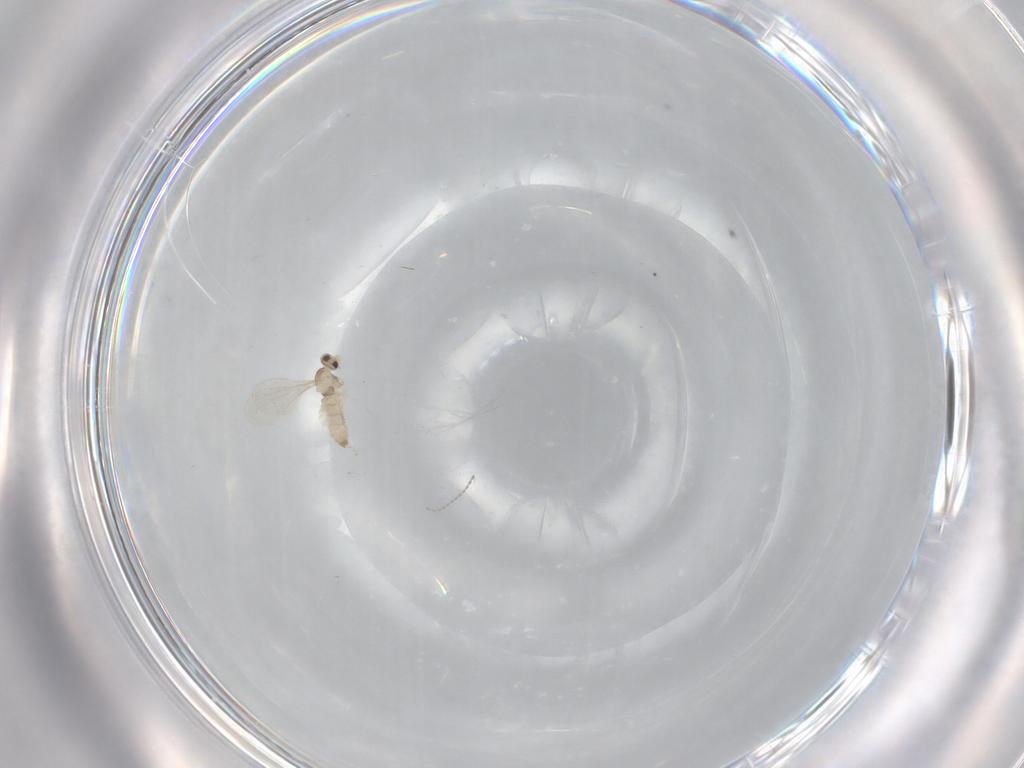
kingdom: Animalia
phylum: Arthropoda
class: Insecta
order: Diptera
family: Cecidomyiidae
